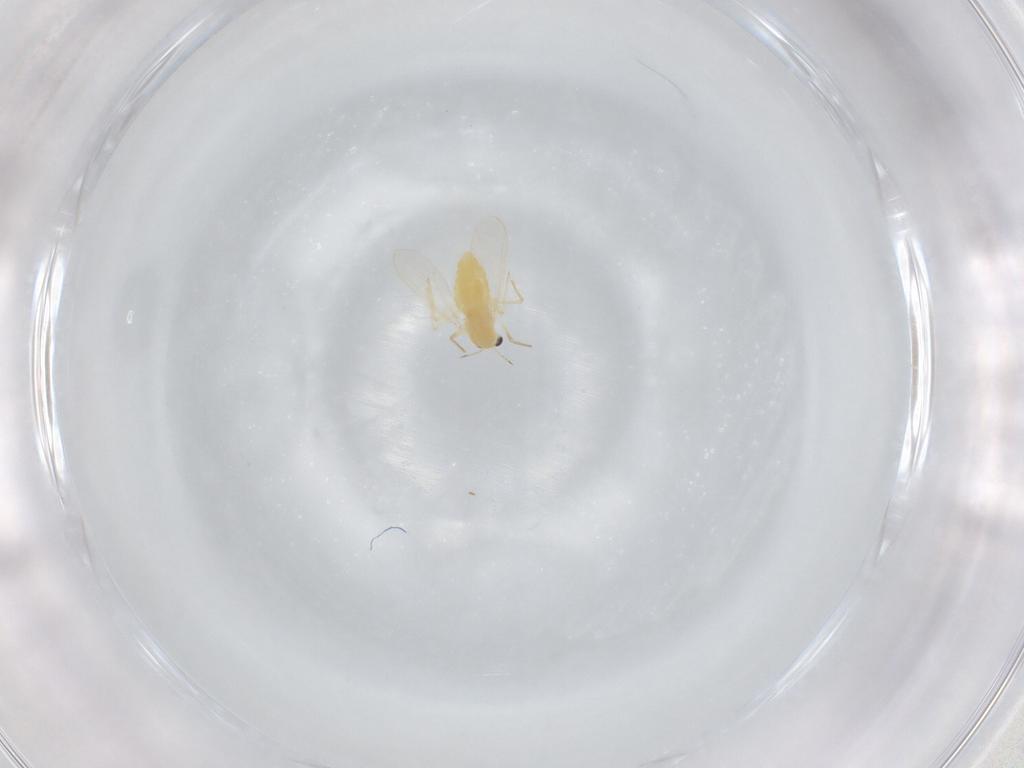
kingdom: Animalia
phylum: Arthropoda
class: Insecta
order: Diptera
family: Chironomidae
